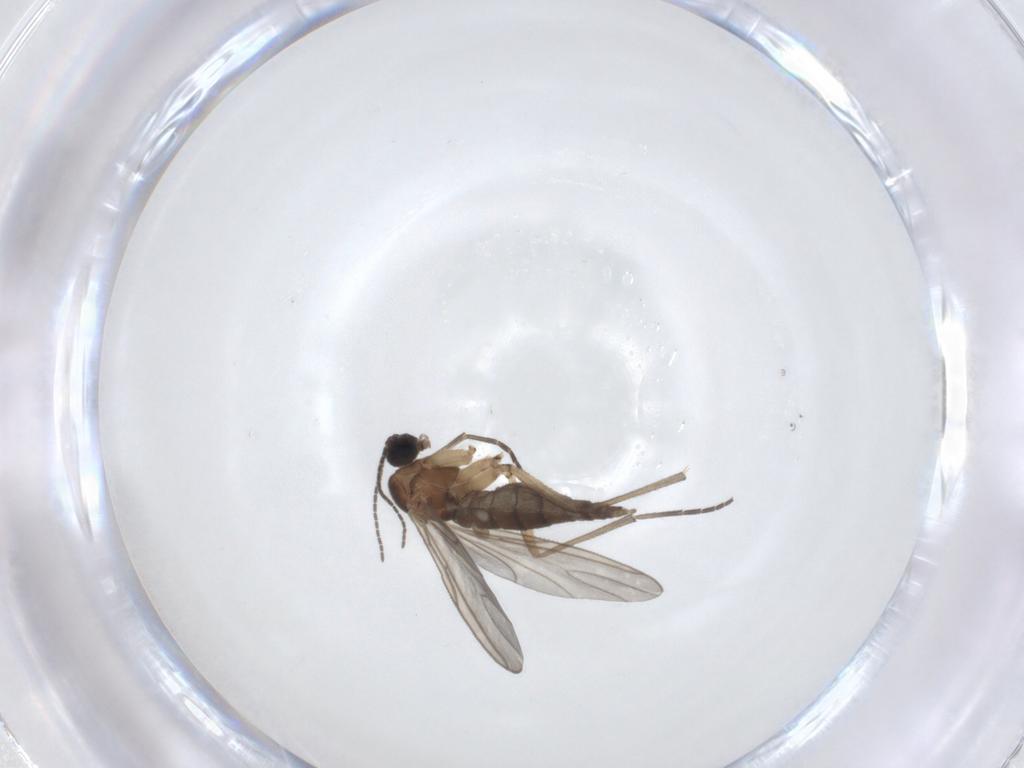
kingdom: Animalia
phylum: Arthropoda
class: Insecta
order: Diptera
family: Sciaridae
